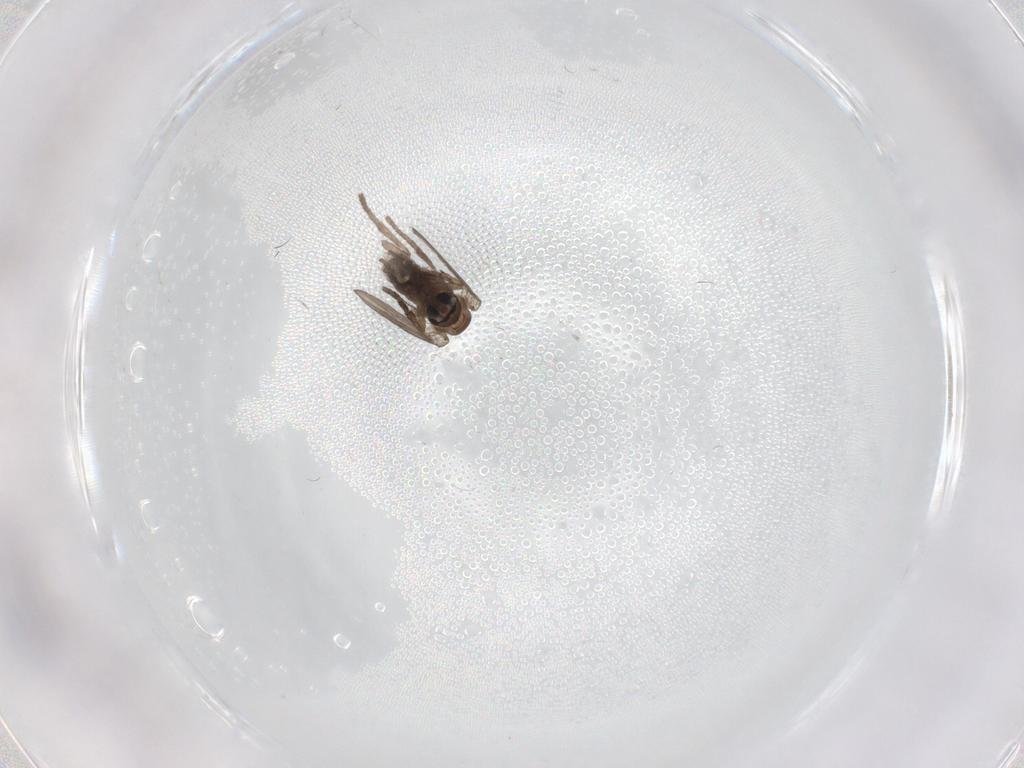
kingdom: Animalia
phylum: Arthropoda
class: Insecta
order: Diptera
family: Psychodidae
